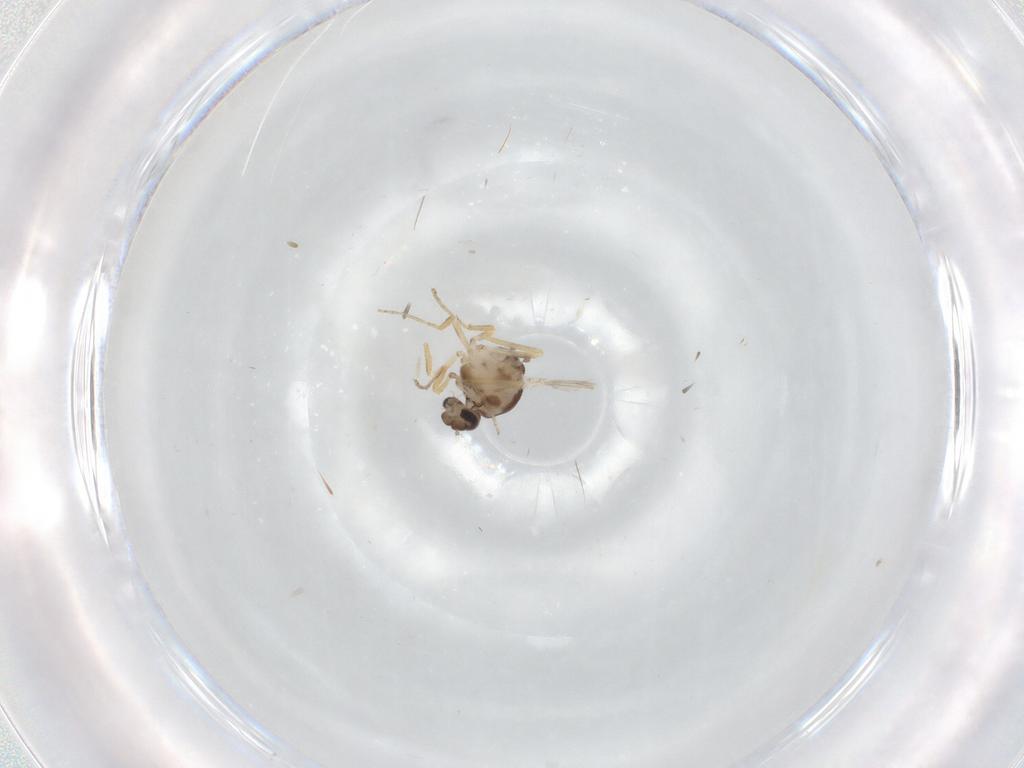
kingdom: Animalia
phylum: Arthropoda
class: Insecta
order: Diptera
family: Ceratopogonidae
